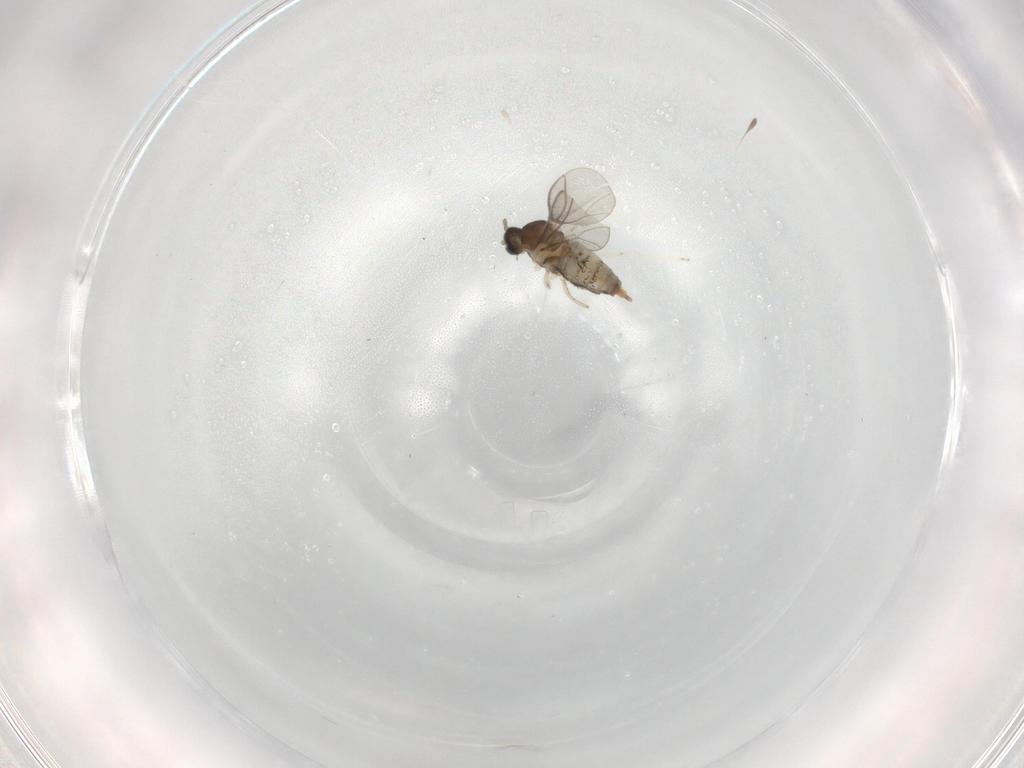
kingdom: Animalia
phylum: Arthropoda
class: Insecta
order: Diptera
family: Cecidomyiidae
